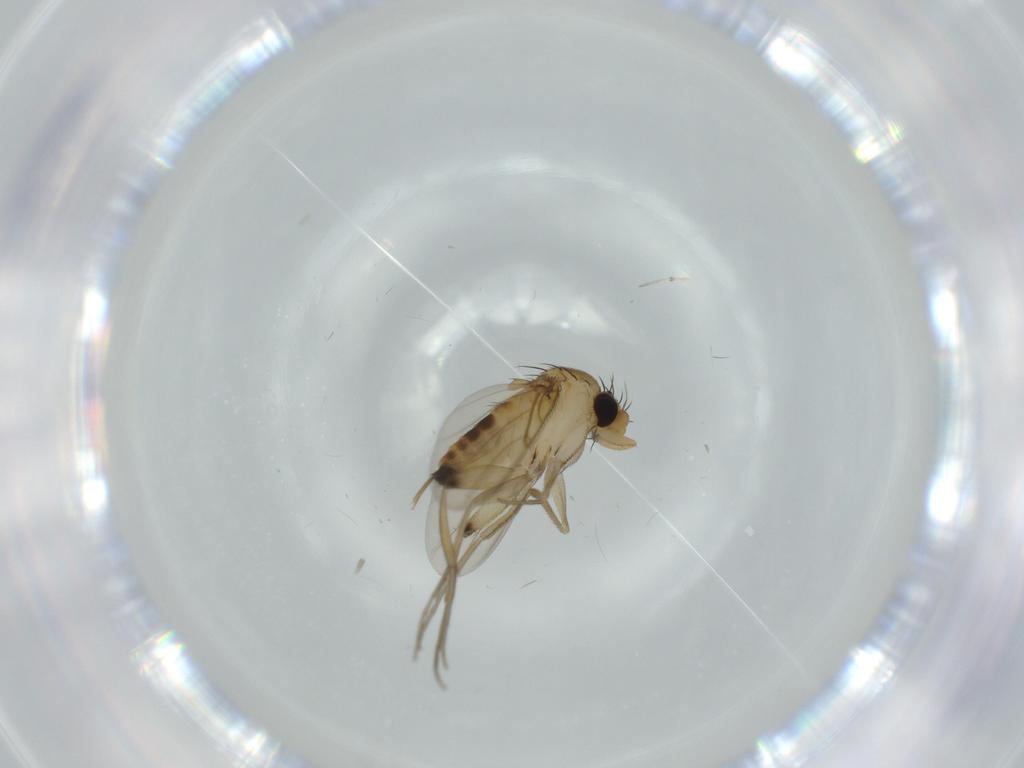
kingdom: Animalia
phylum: Arthropoda
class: Insecta
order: Diptera
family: Phoridae
